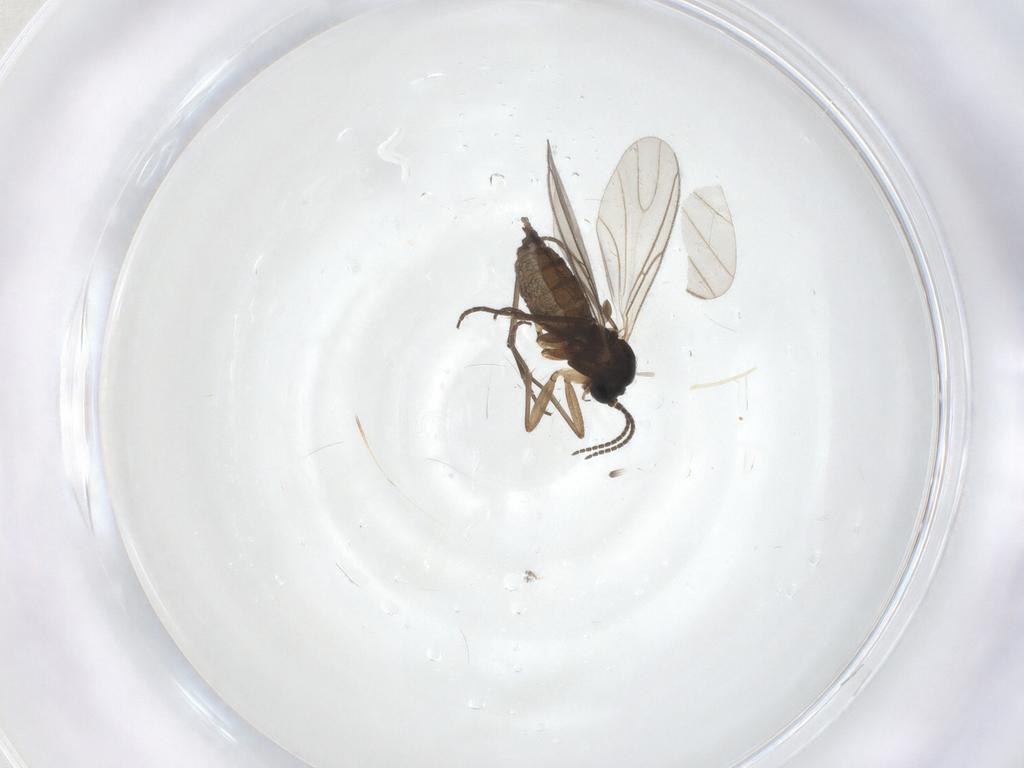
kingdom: Animalia
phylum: Arthropoda
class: Insecta
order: Diptera
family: Sciaridae
